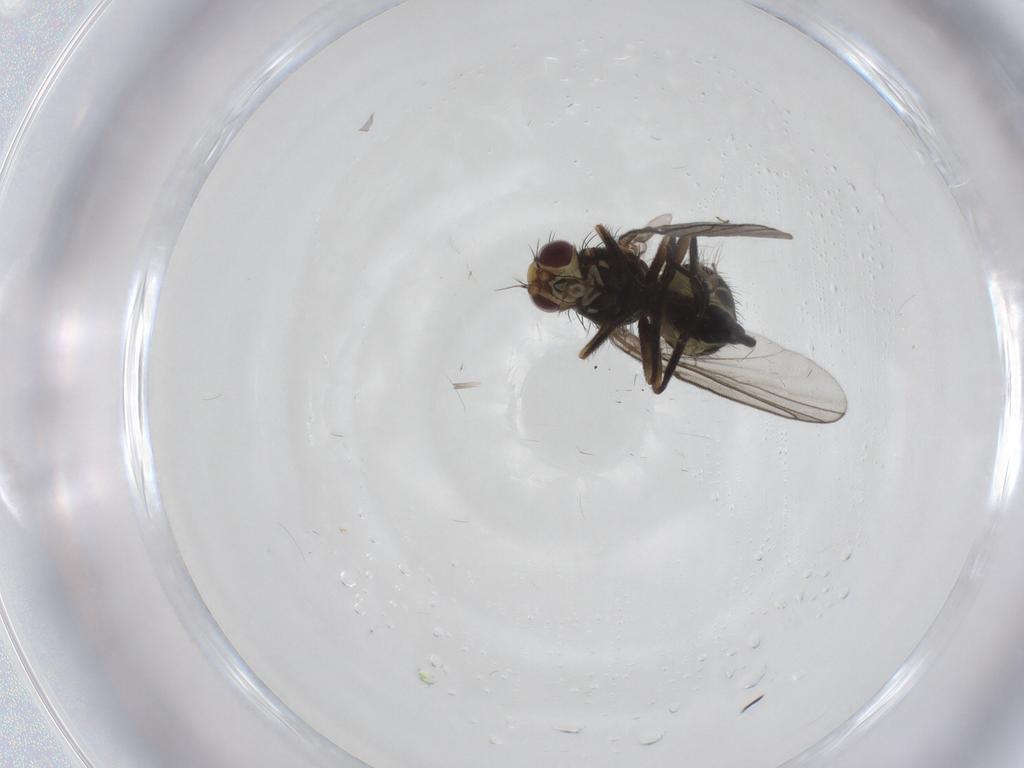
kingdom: Animalia
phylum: Arthropoda
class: Insecta
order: Diptera
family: Agromyzidae
